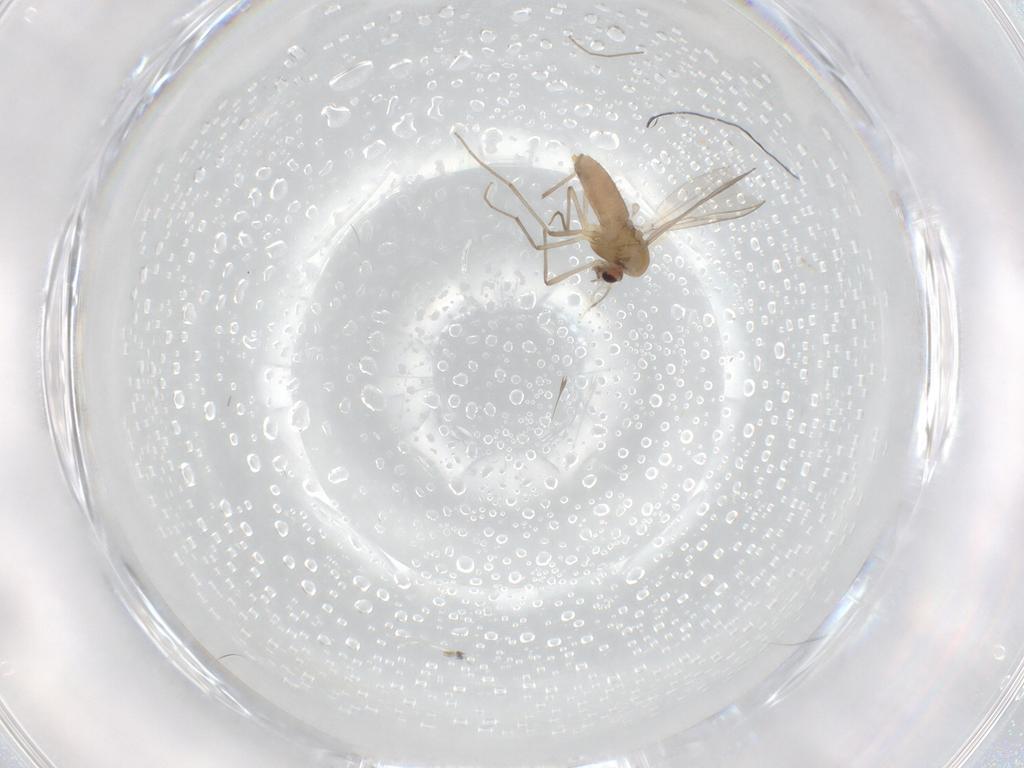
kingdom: Animalia
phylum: Arthropoda
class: Insecta
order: Diptera
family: Chironomidae
